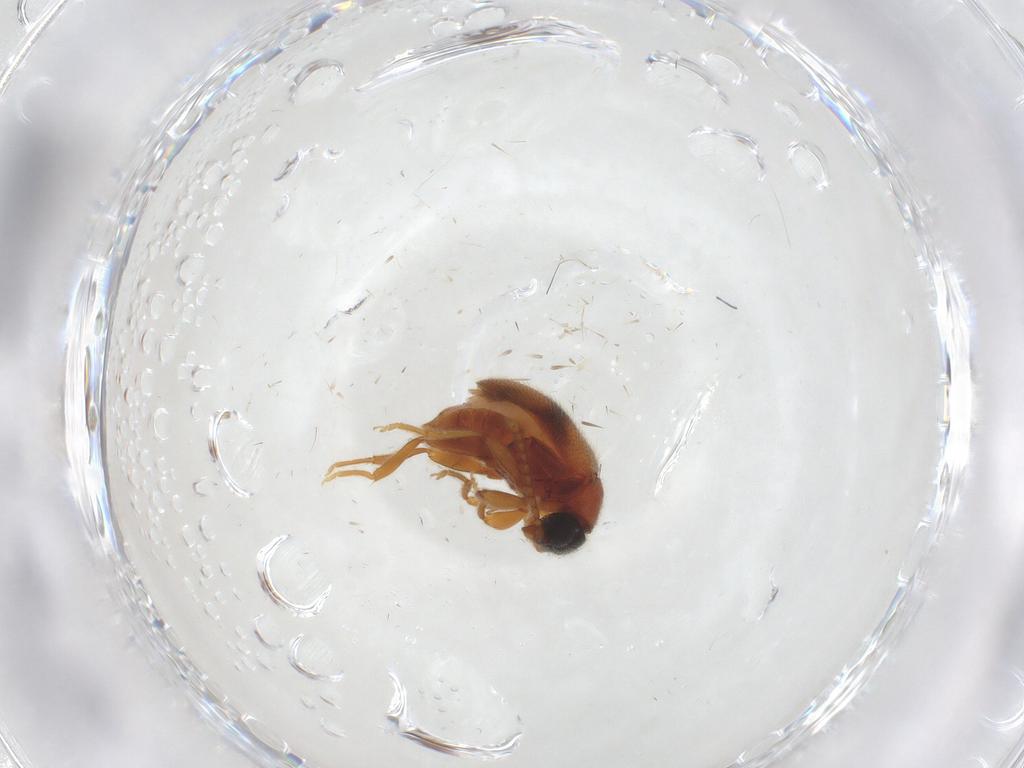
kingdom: Animalia
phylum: Arthropoda
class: Insecta
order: Coleoptera
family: Aderidae
